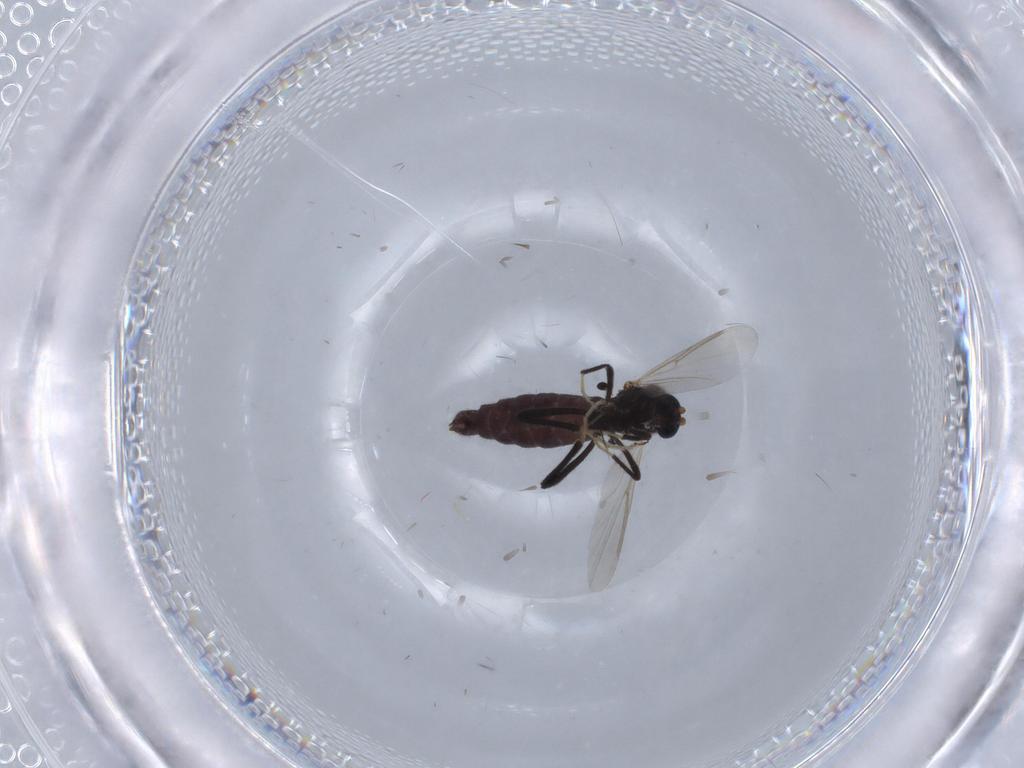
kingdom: Animalia
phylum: Arthropoda
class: Insecta
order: Diptera
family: Ceratopogonidae
